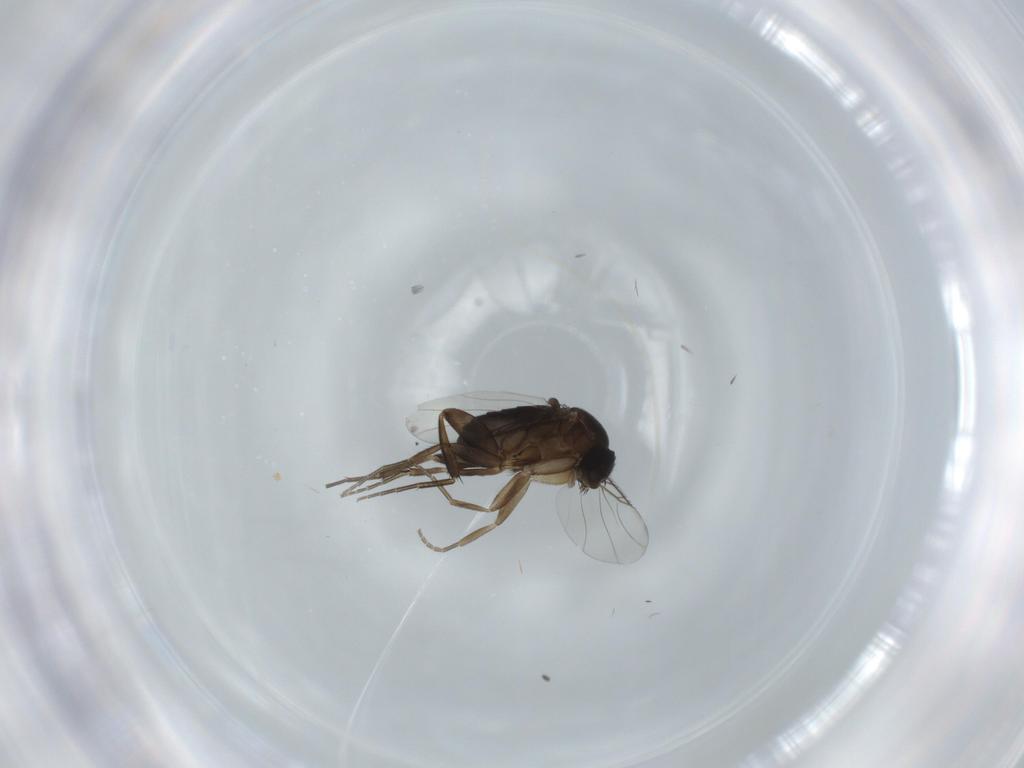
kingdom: Animalia
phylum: Arthropoda
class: Insecta
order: Diptera
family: Phoridae
